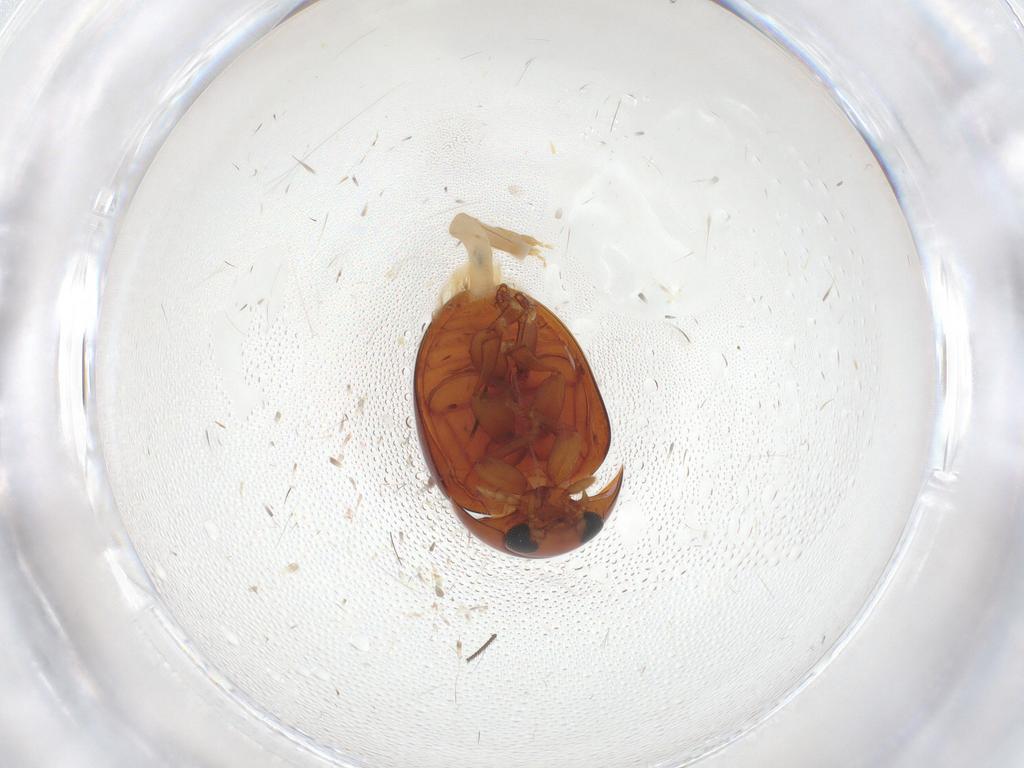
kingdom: Animalia
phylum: Arthropoda
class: Insecta
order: Coleoptera
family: Phalacridae
